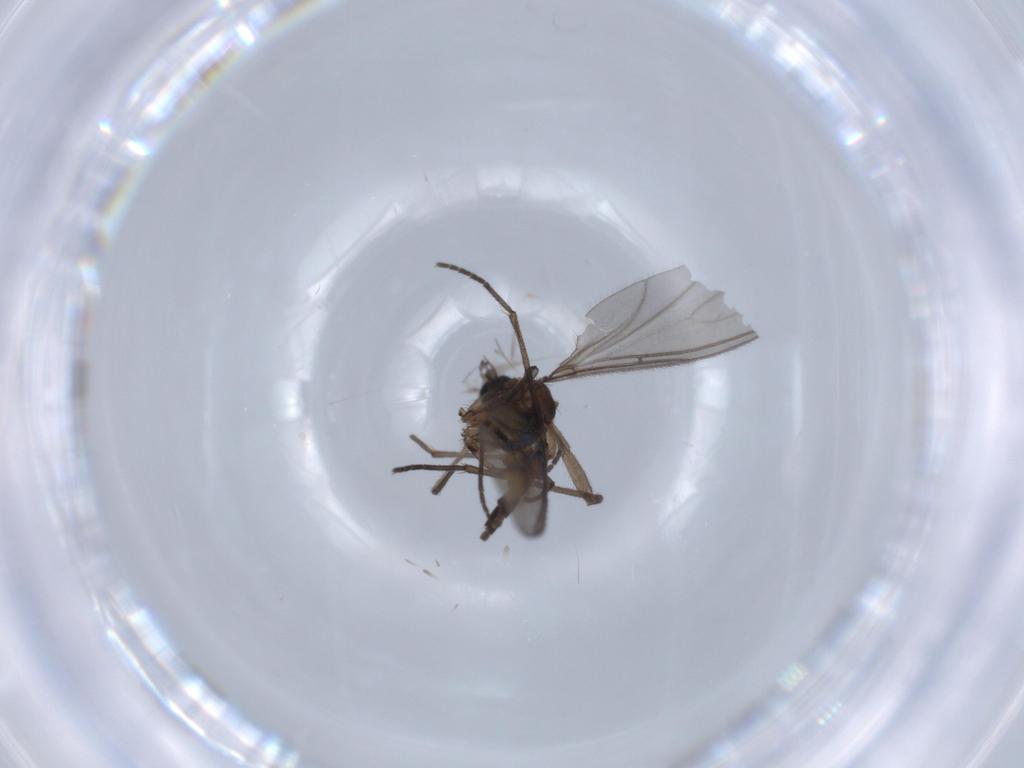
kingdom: Animalia
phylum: Arthropoda
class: Insecta
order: Diptera
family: Sciaridae
